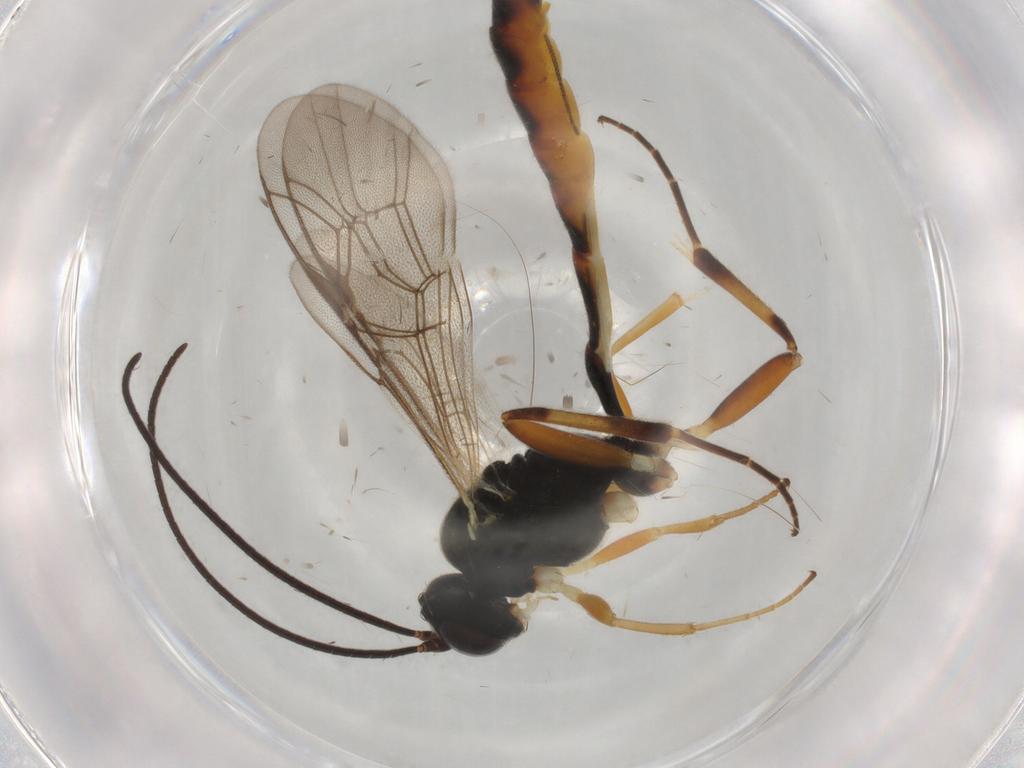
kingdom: Animalia
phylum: Arthropoda
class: Insecta
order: Hymenoptera
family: Ichneumonidae
